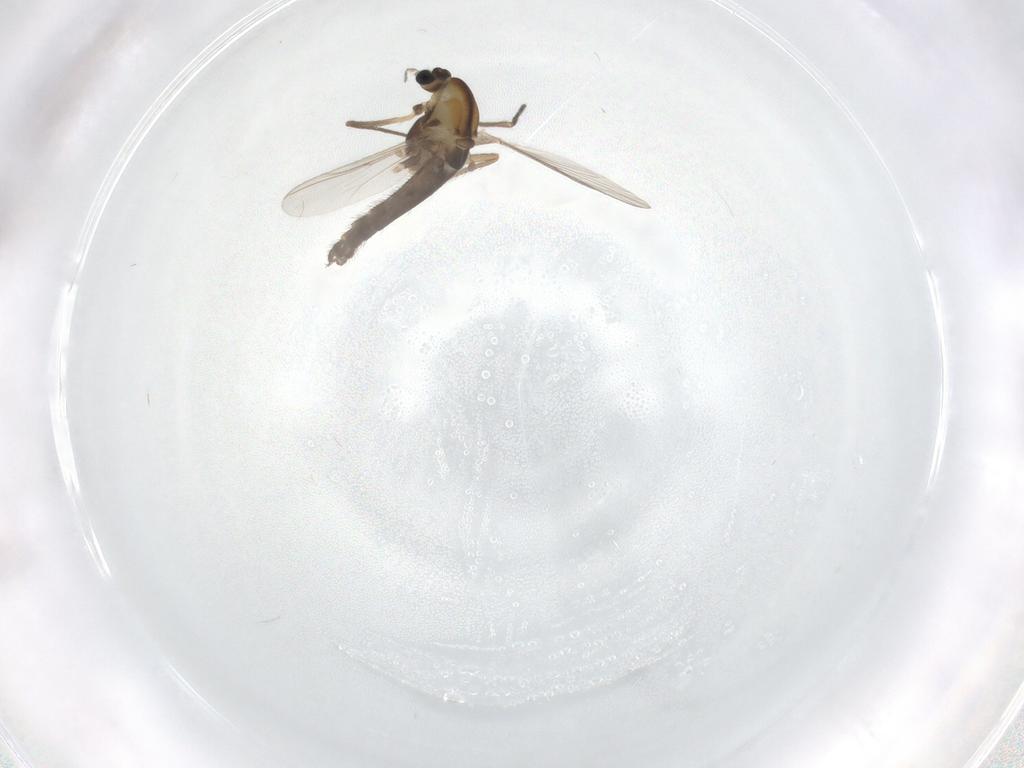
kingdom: Animalia
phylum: Arthropoda
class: Insecta
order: Diptera
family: Chironomidae
